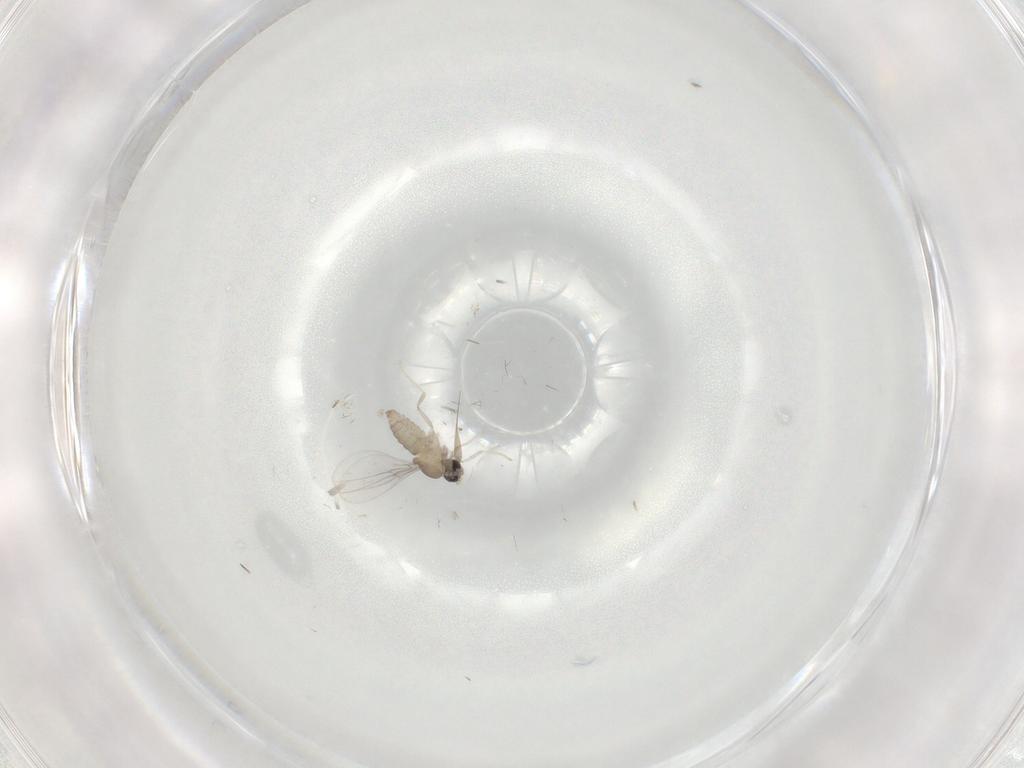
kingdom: Animalia
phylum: Arthropoda
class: Insecta
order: Diptera
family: Cecidomyiidae
